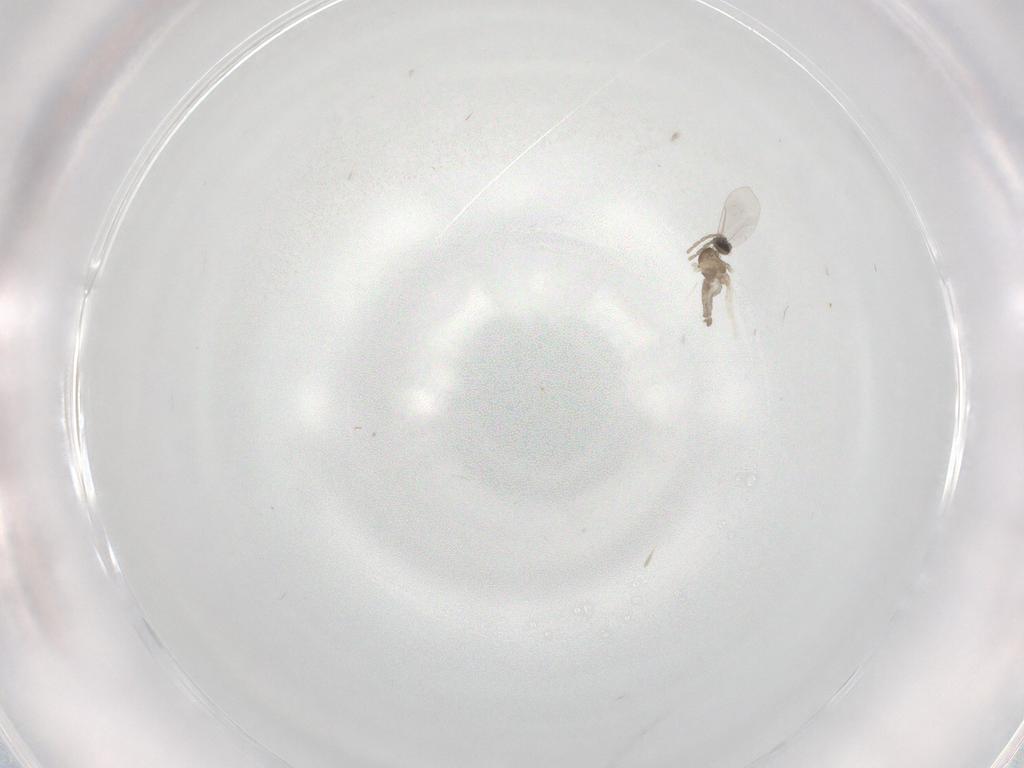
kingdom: Animalia
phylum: Arthropoda
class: Insecta
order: Diptera
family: Cecidomyiidae
